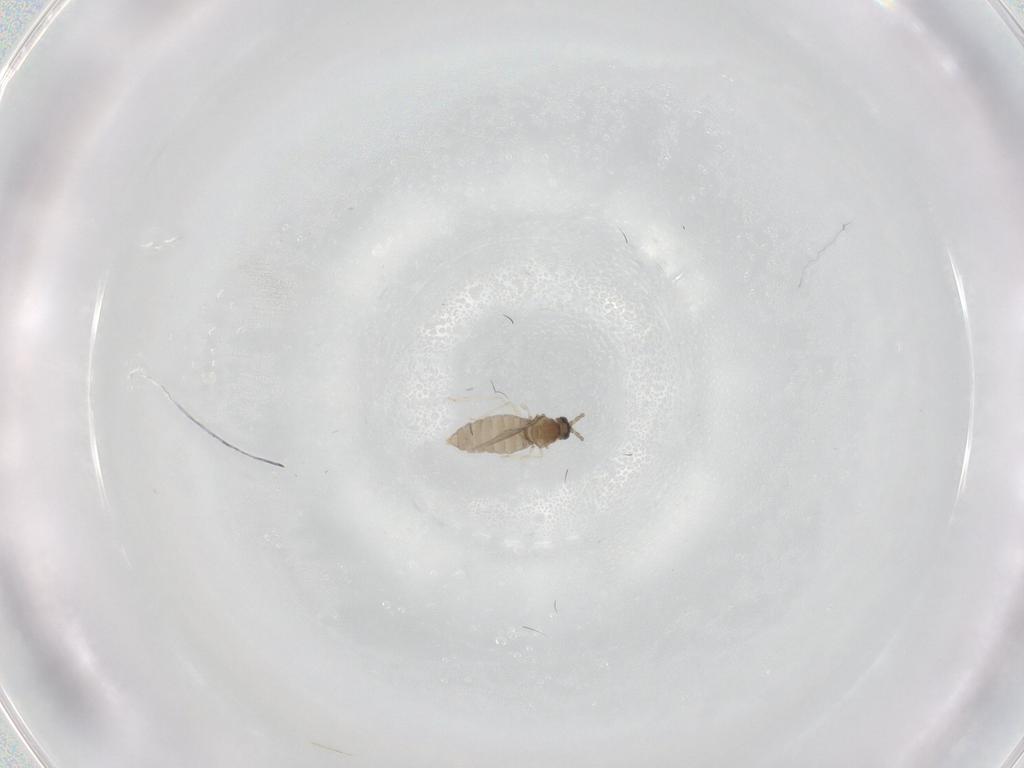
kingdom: Animalia
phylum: Arthropoda
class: Insecta
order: Diptera
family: Cecidomyiidae
